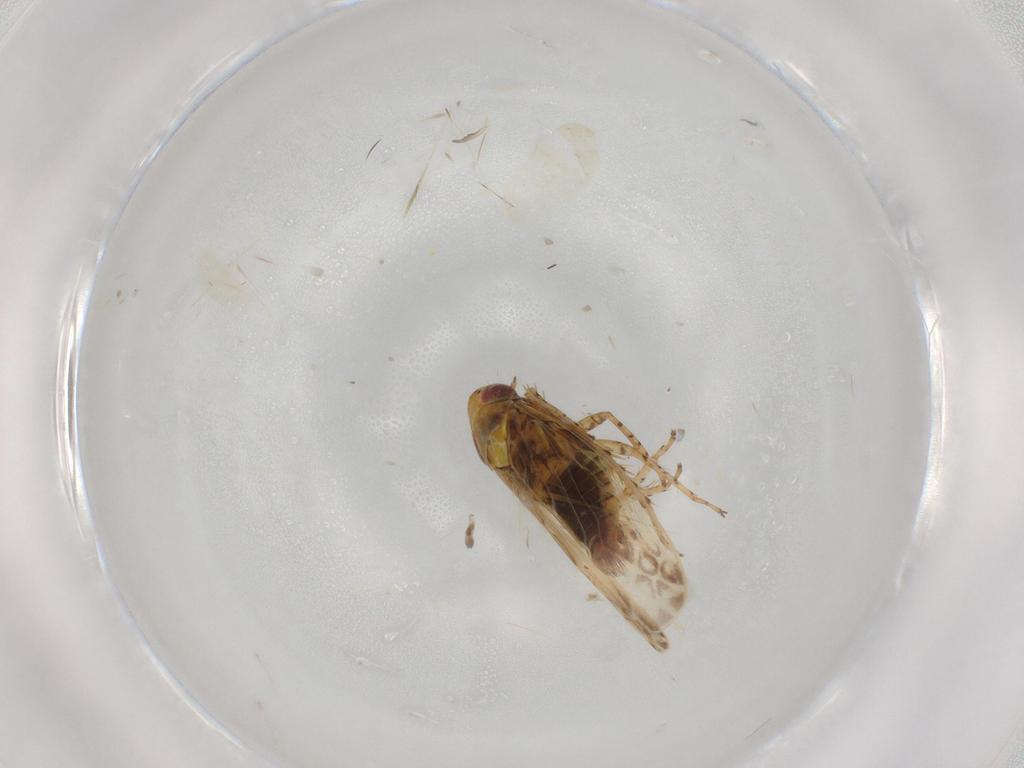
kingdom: Animalia
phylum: Arthropoda
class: Insecta
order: Hemiptera
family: Cicadellidae
